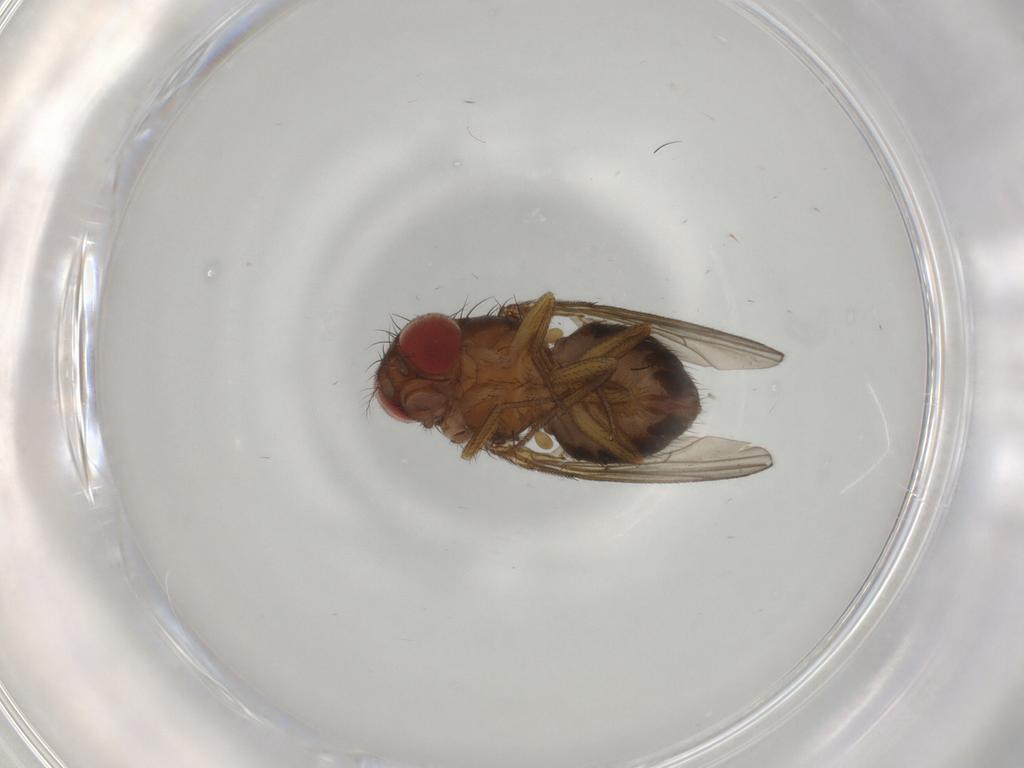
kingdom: Animalia
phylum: Arthropoda
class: Insecta
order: Diptera
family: Drosophilidae
